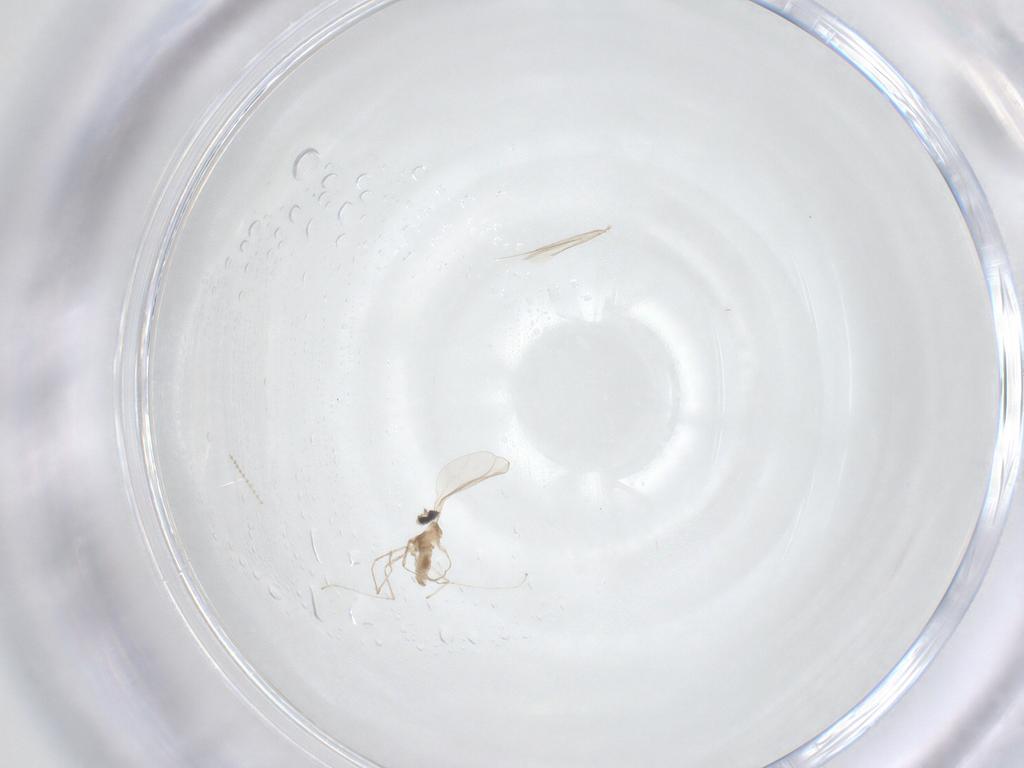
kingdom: Animalia
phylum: Arthropoda
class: Insecta
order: Diptera
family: Cecidomyiidae
